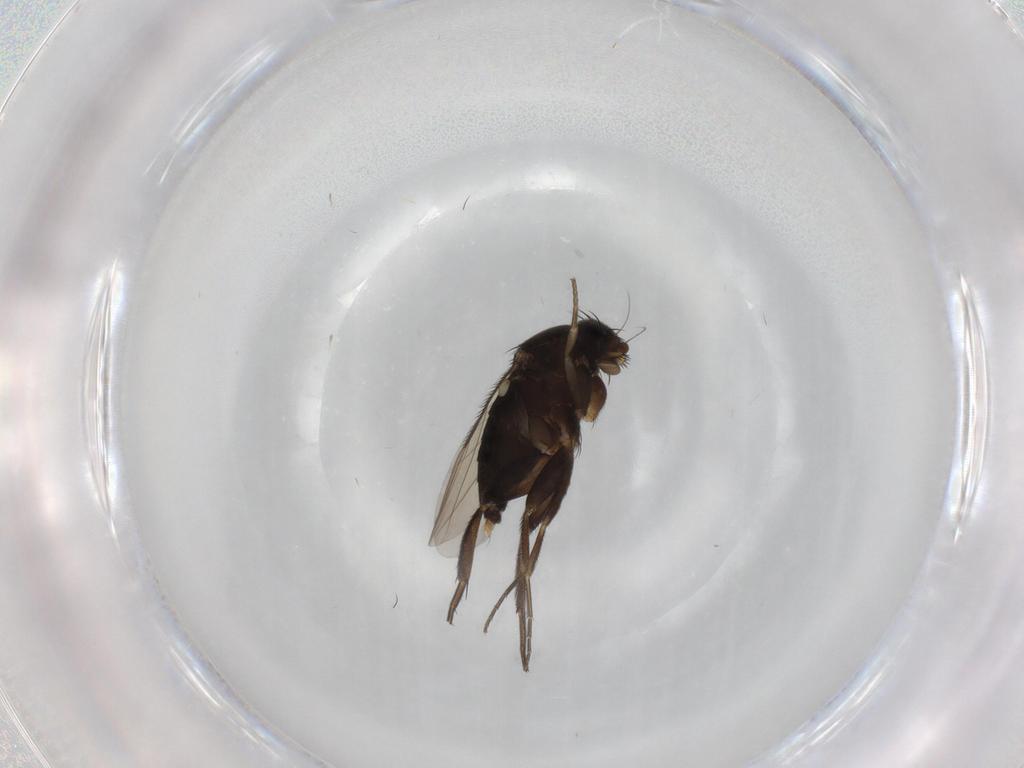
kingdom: Animalia
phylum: Arthropoda
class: Insecta
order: Diptera
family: Phoridae
